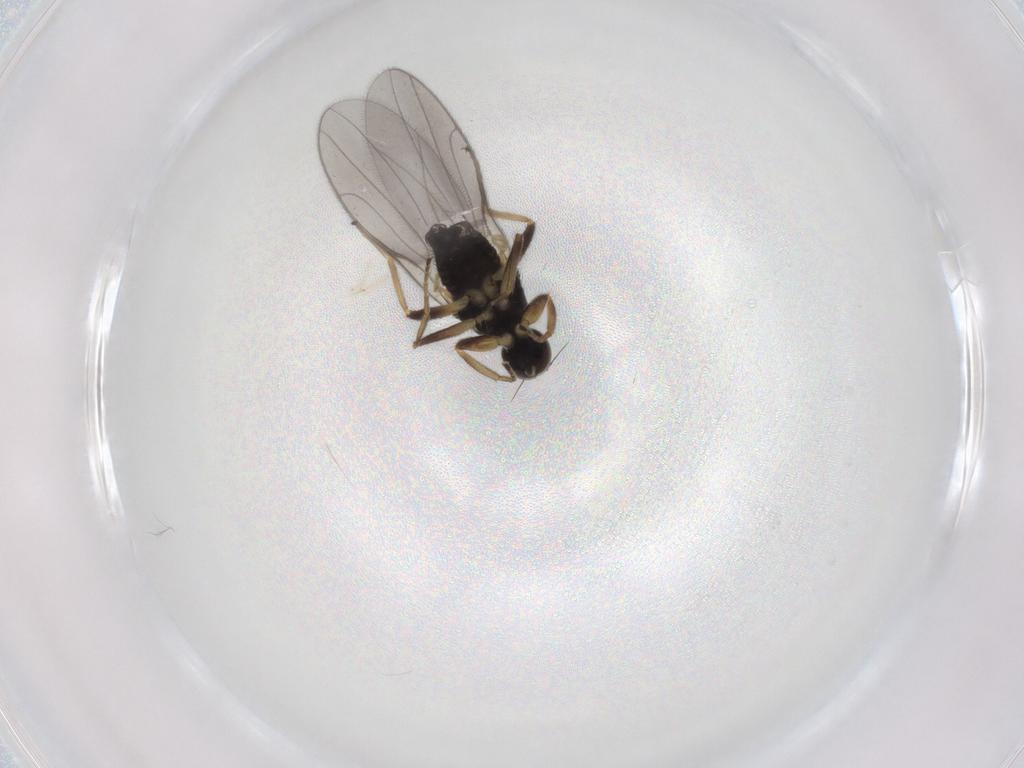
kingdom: Animalia
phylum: Arthropoda
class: Insecta
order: Diptera
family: Hybotidae
